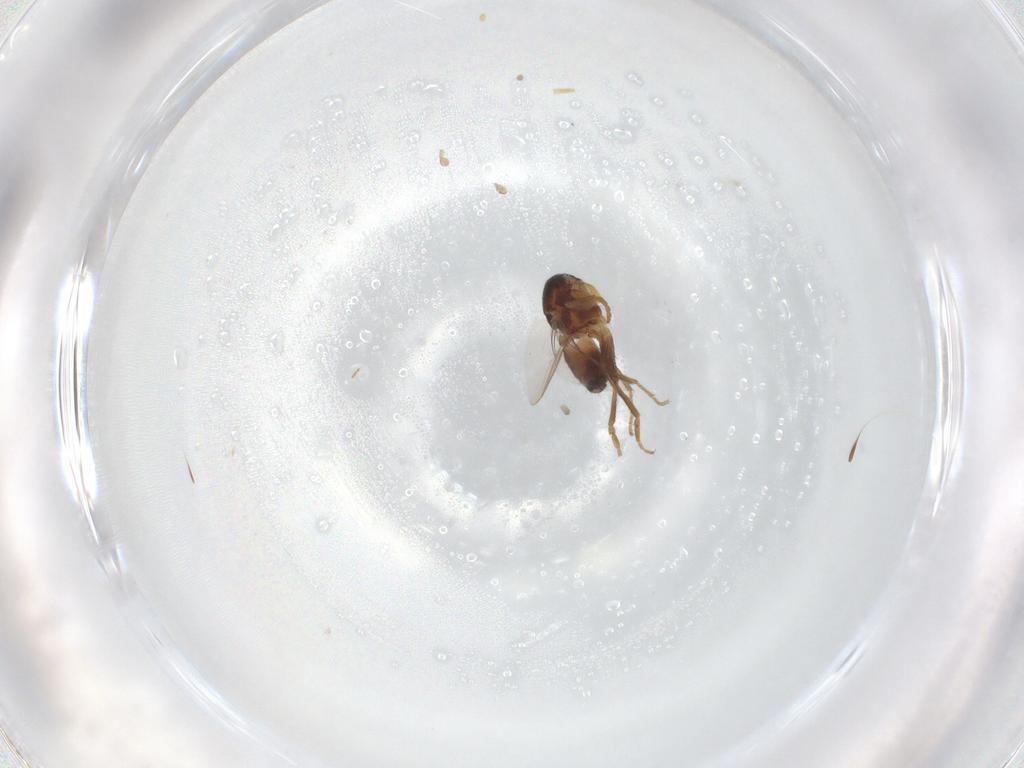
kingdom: Animalia
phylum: Arthropoda
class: Insecta
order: Diptera
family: Sphaeroceridae
